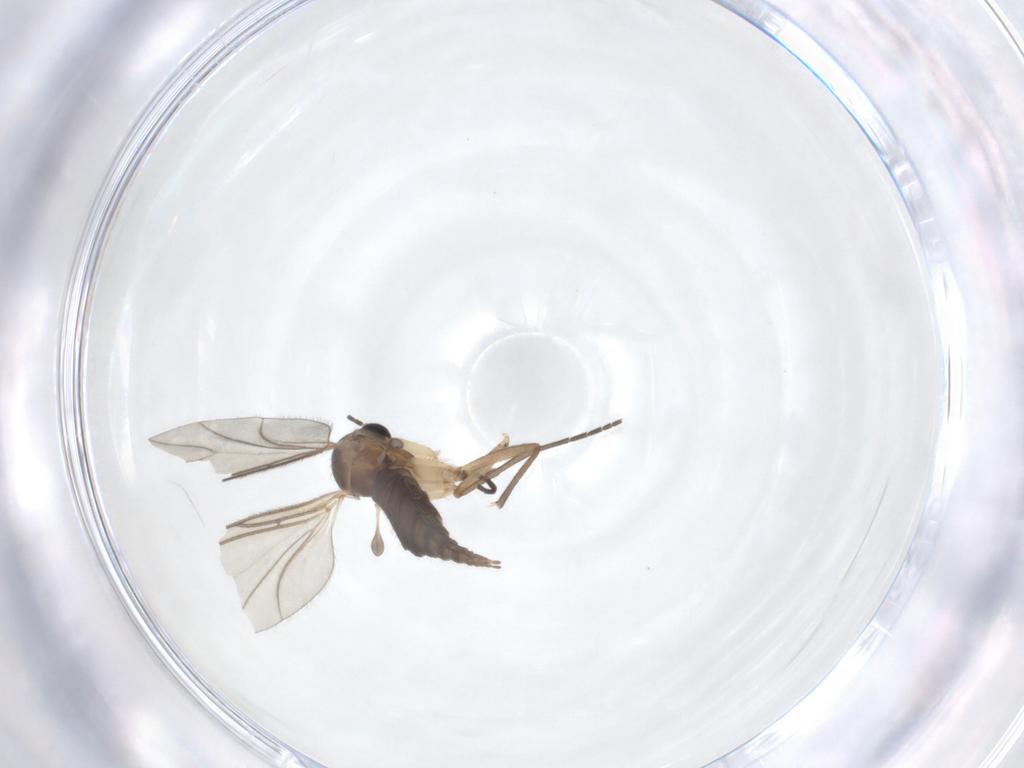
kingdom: Animalia
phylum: Arthropoda
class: Insecta
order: Diptera
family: Sciaridae
